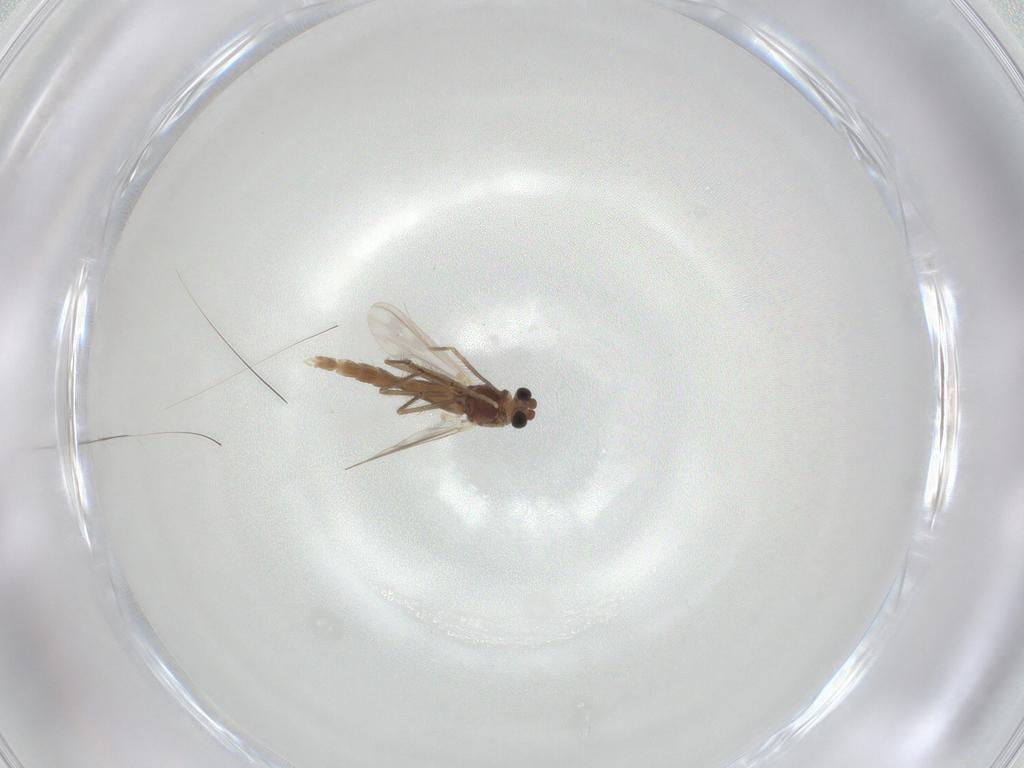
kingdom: Animalia
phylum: Arthropoda
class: Insecta
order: Diptera
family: Chironomidae
